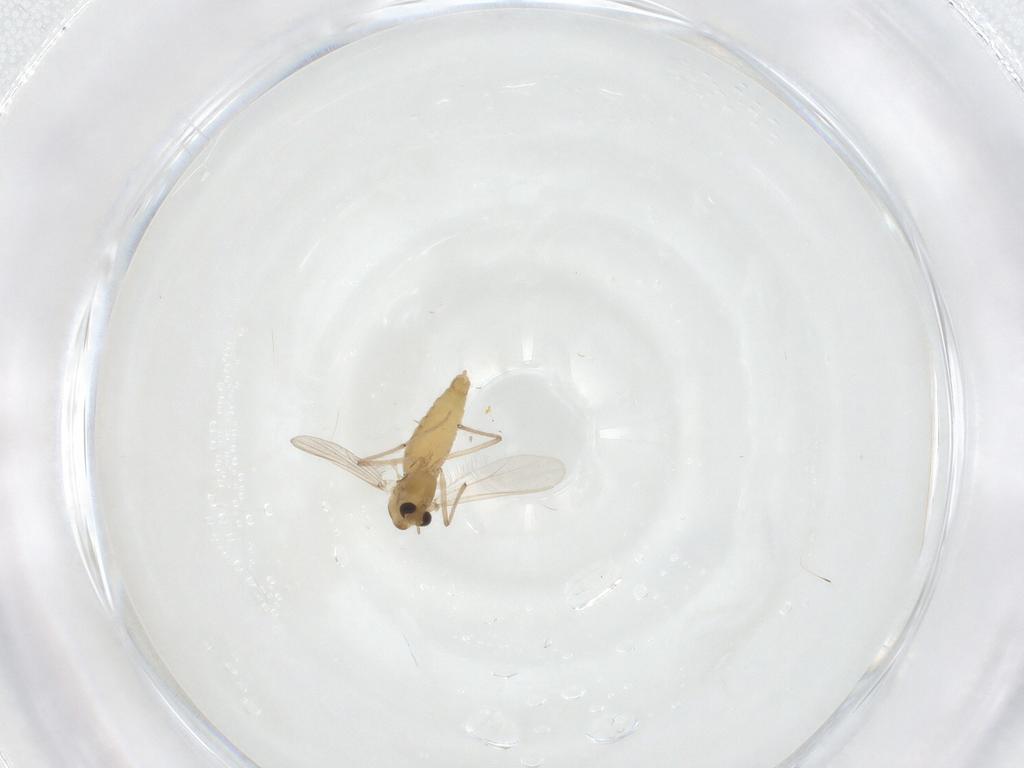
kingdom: Animalia
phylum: Arthropoda
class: Insecta
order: Diptera
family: Chironomidae
